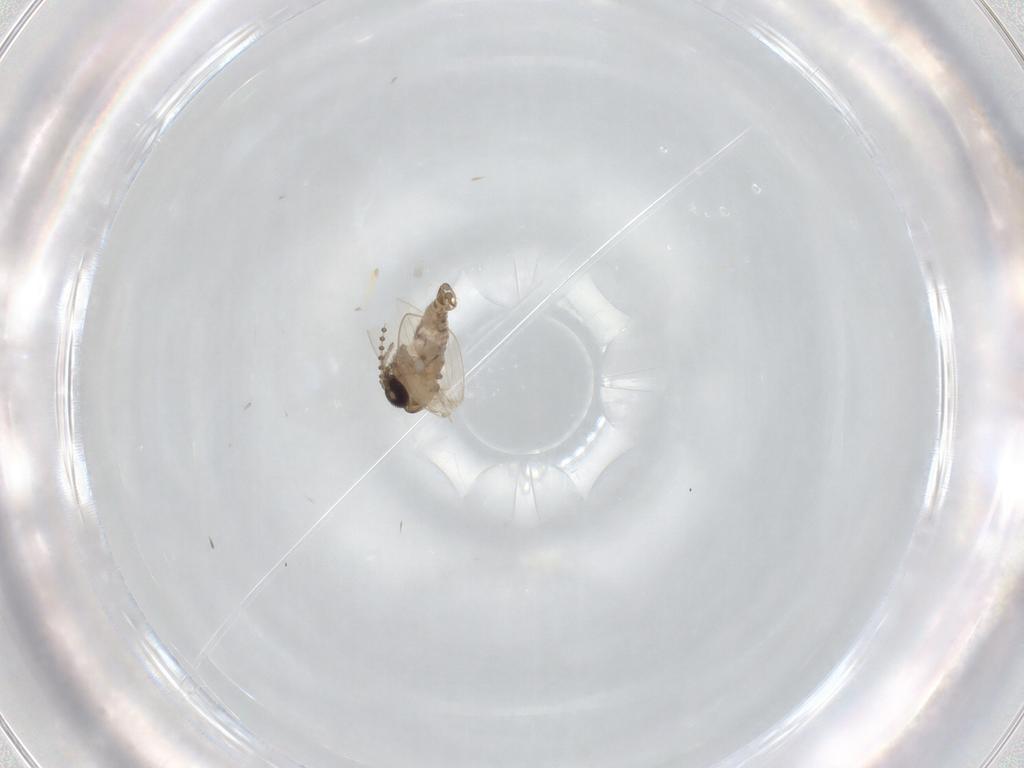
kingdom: Animalia
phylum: Arthropoda
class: Insecta
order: Diptera
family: Psychodidae
